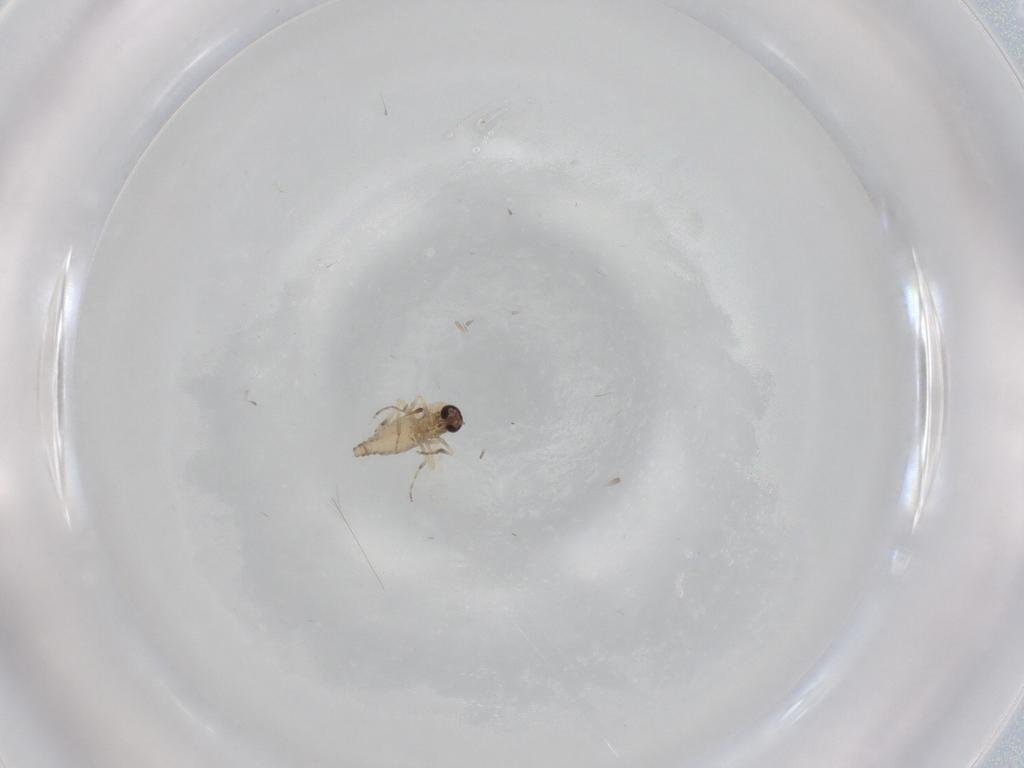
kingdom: Animalia
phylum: Arthropoda
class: Insecta
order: Diptera
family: Ceratopogonidae
